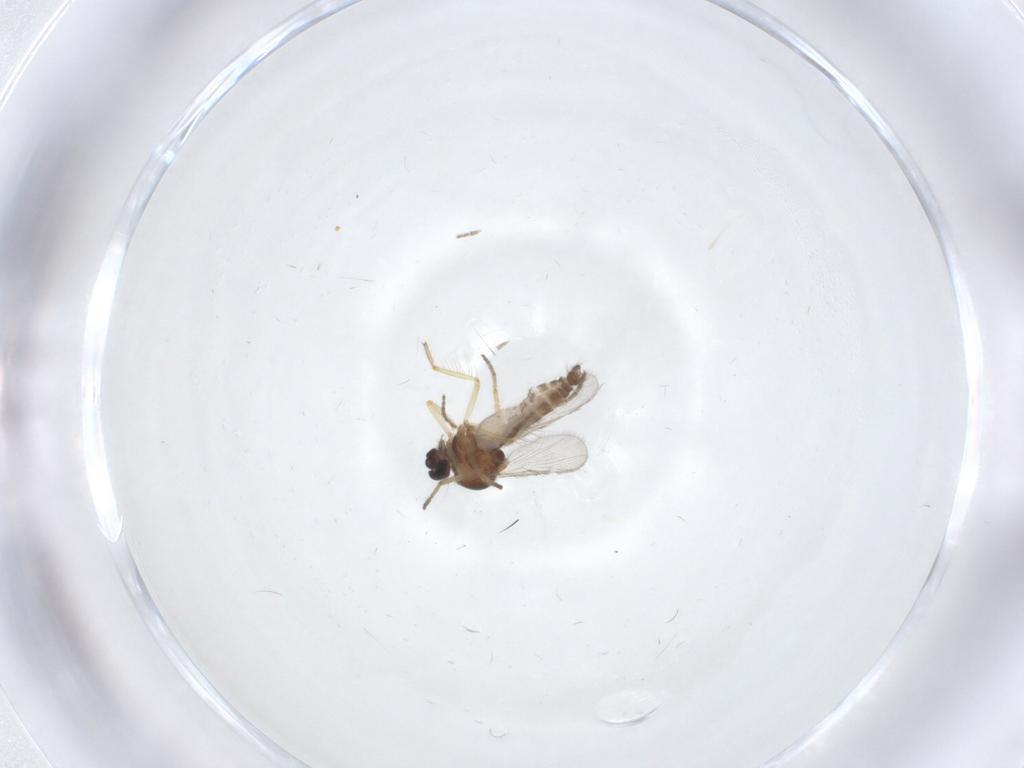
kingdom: Animalia
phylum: Arthropoda
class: Insecta
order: Diptera
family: Ceratopogonidae
